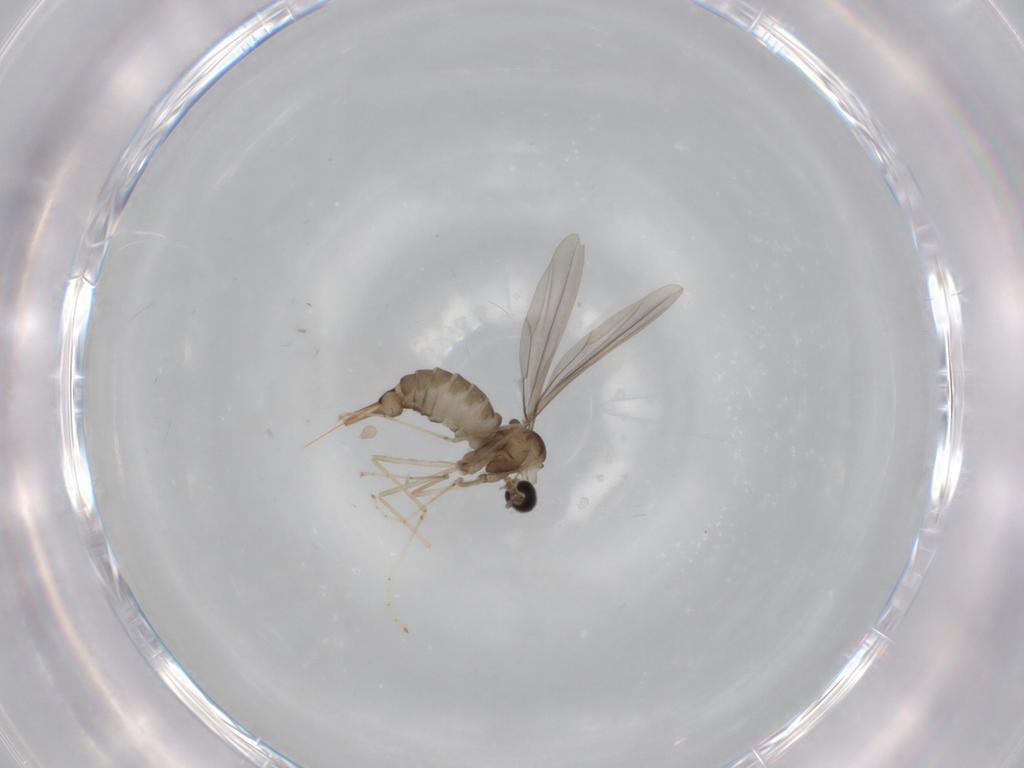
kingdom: Animalia
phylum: Arthropoda
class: Insecta
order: Diptera
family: Cecidomyiidae
